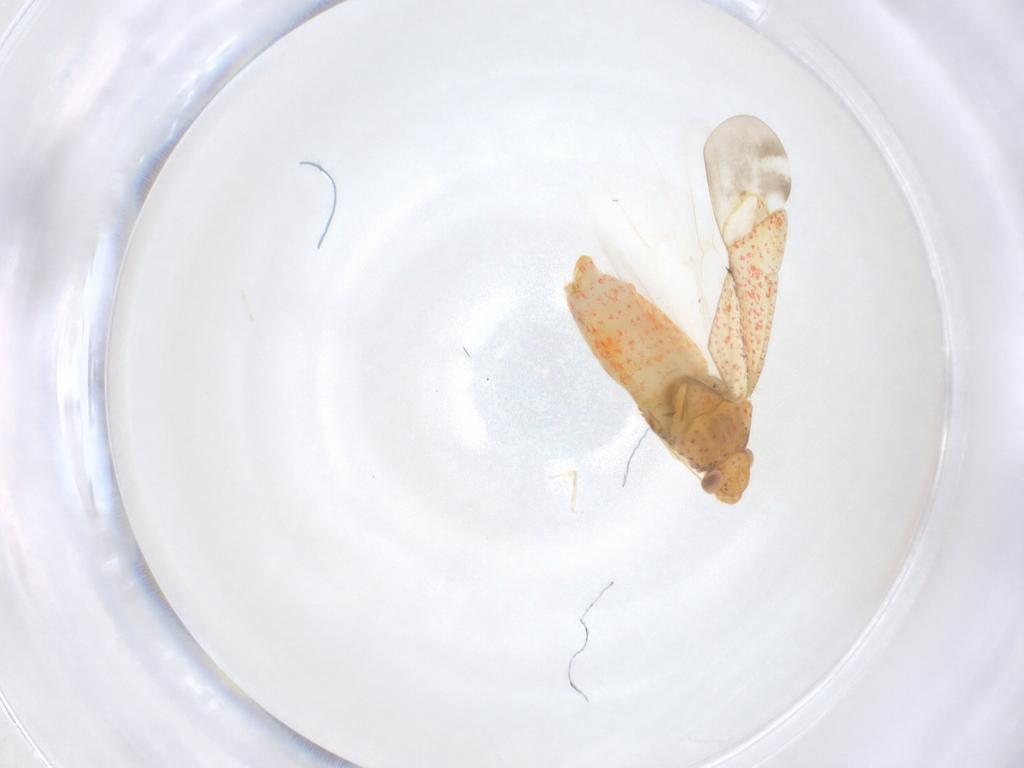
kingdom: Animalia
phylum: Arthropoda
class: Insecta
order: Hemiptera
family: Miridae
